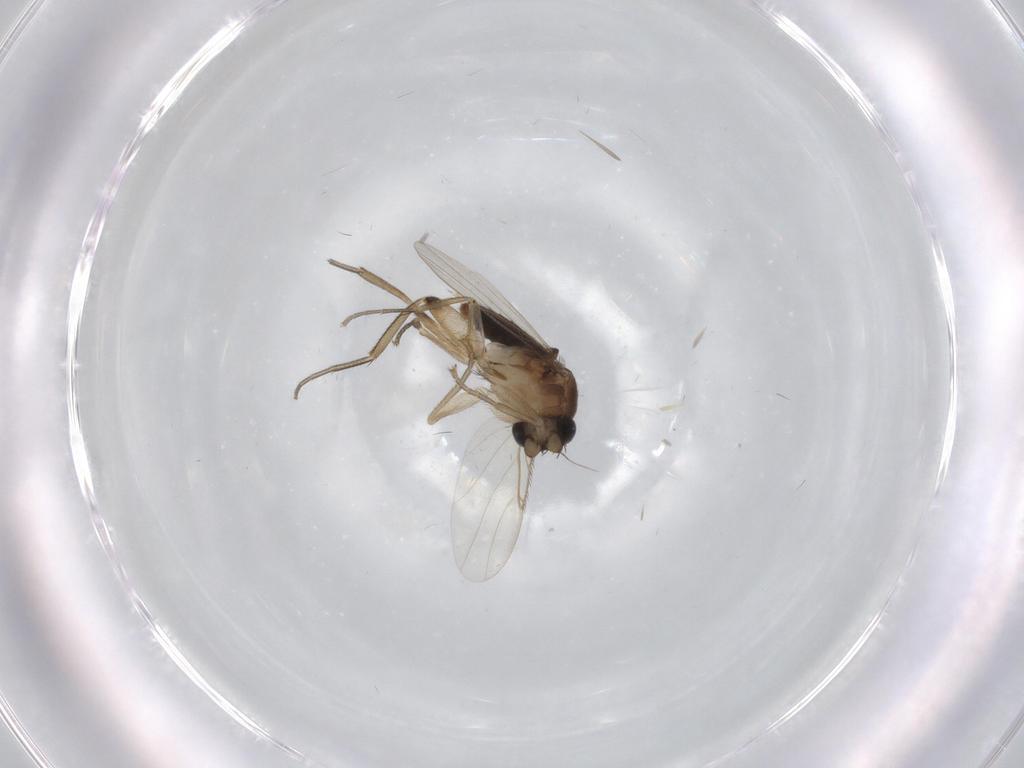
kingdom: Animalia
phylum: Arthropoda
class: Insecta
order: Diptera
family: Phoridae
